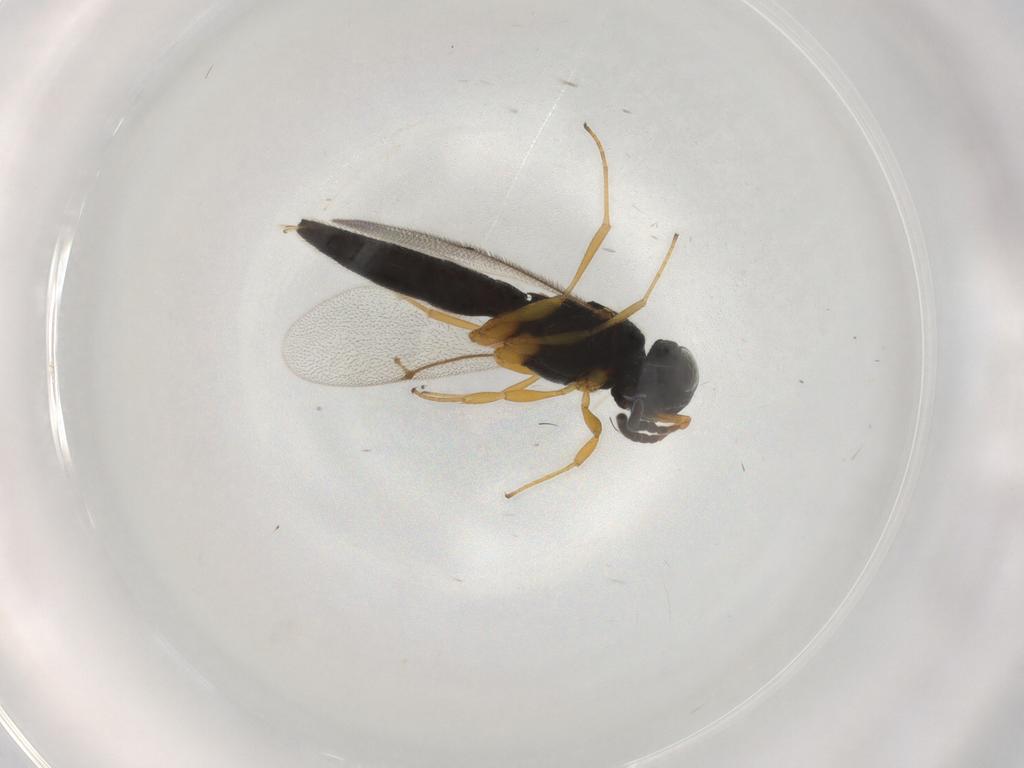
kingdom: Animalia
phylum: Arthropoda
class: Insecta
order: Hymenoptera
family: Scelionidae
